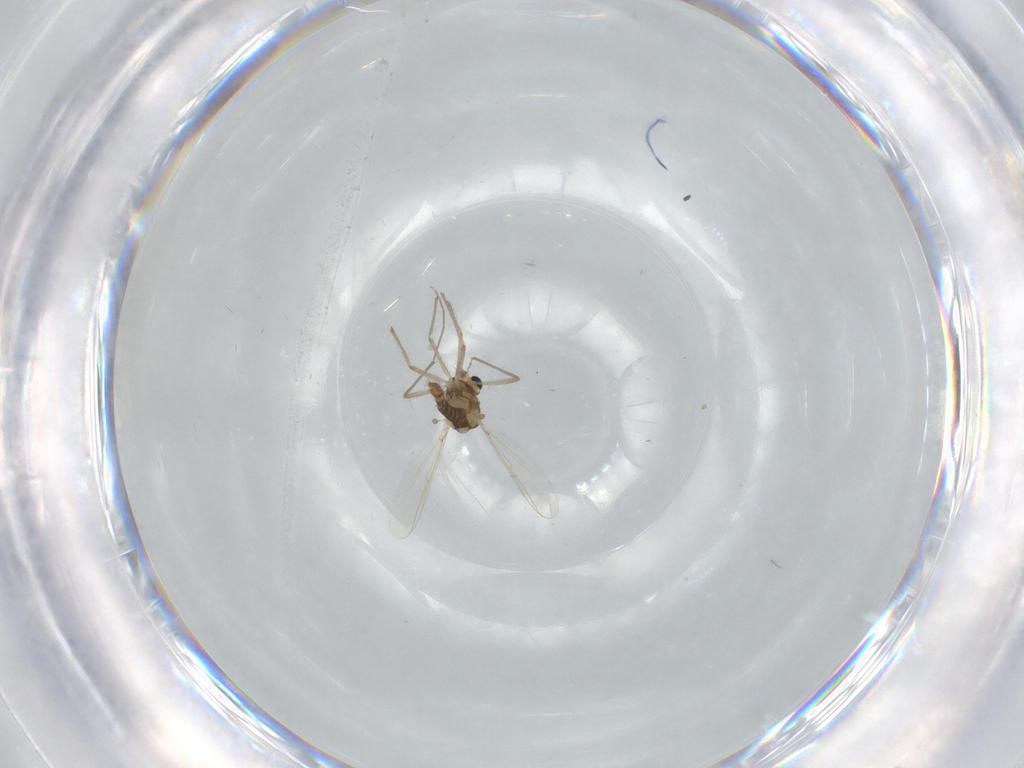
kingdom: Animalia
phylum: Arthropoda
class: Insecta
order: Diptera
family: Chironomidae
